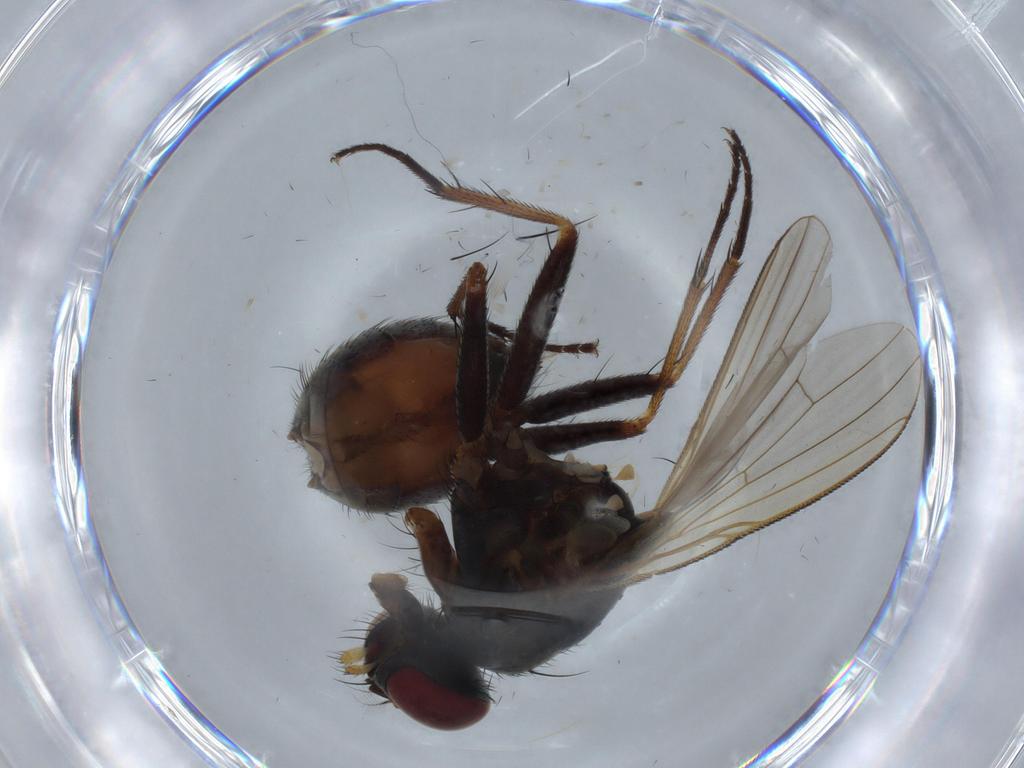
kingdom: Animalia
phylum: Arthropoda
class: Insecta
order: Diptera
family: Muscidae
